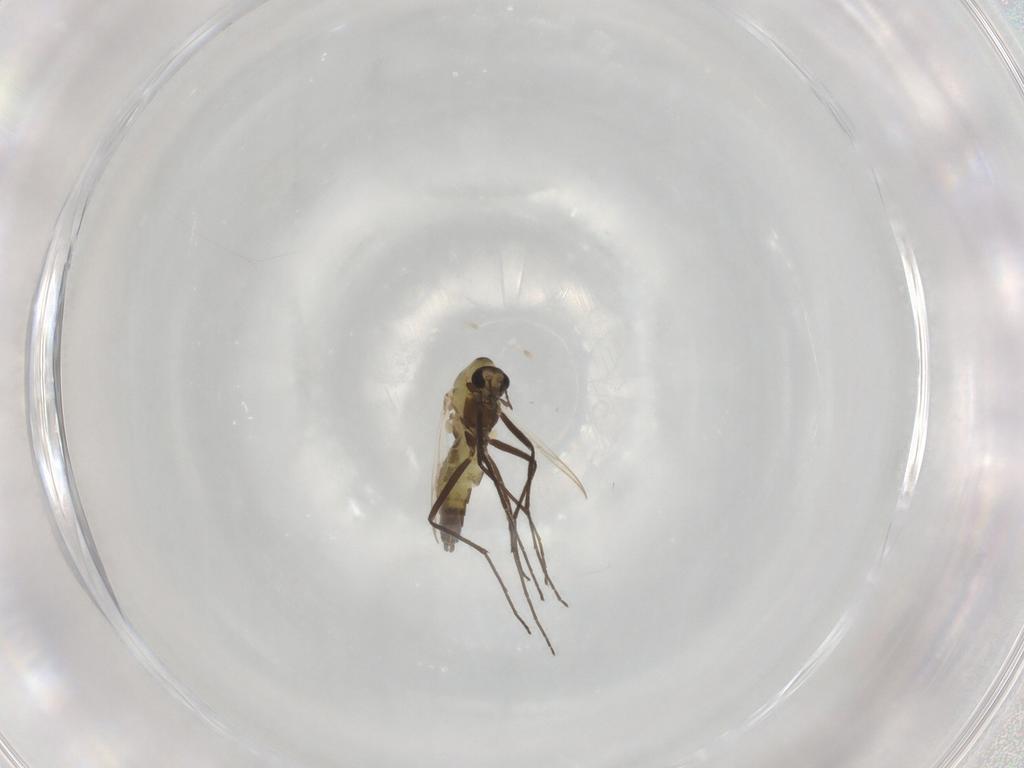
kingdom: Animalia
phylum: Arthropoda
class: Insecta
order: Diptera
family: Chironomidae
